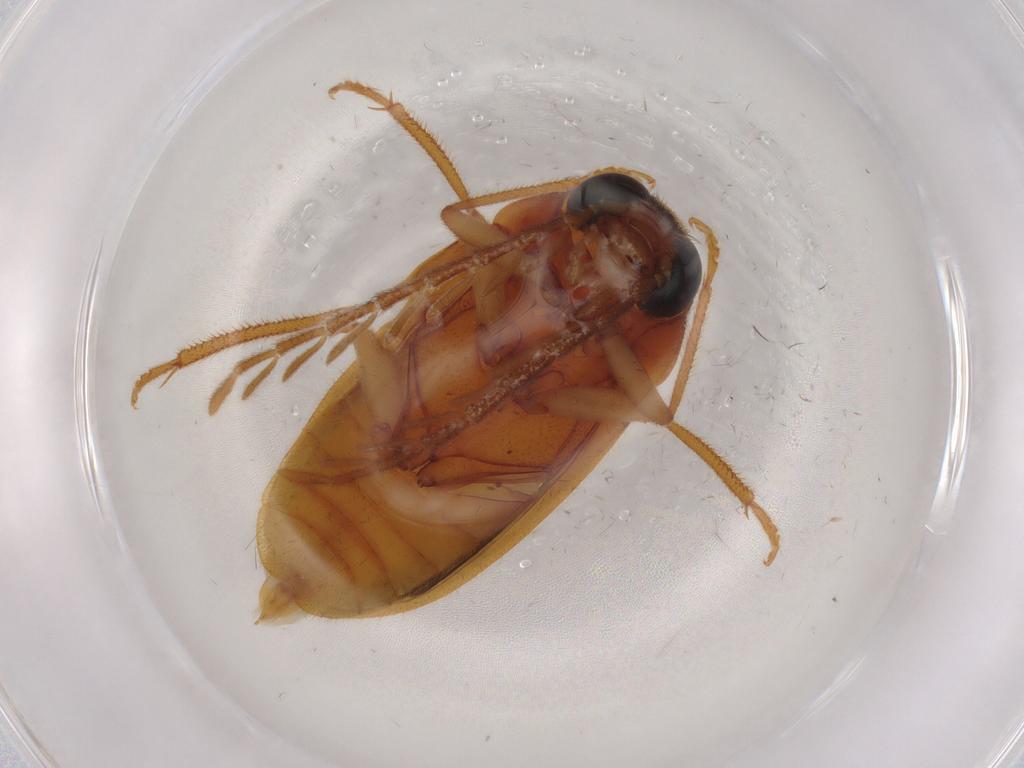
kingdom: Animalia
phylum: Arthropoda
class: Insecta
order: Coleoptera
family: Ptilodactylidae
